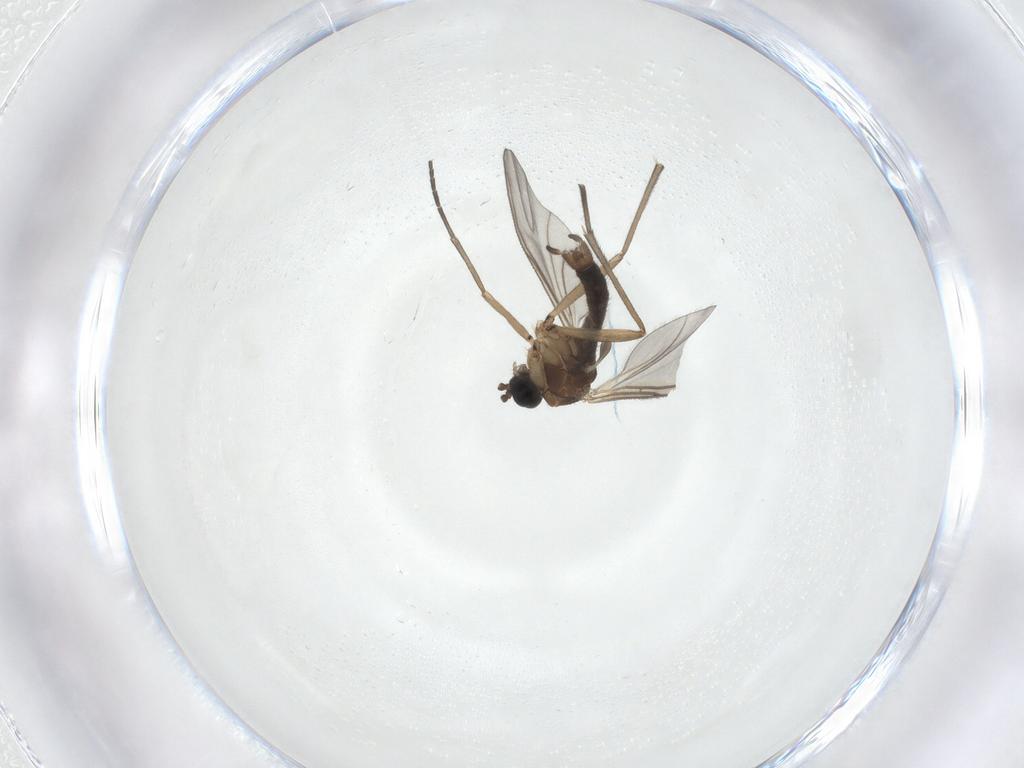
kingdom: Animalia
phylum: Arthropoda
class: Insecta
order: Diptera
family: Sciaridae
